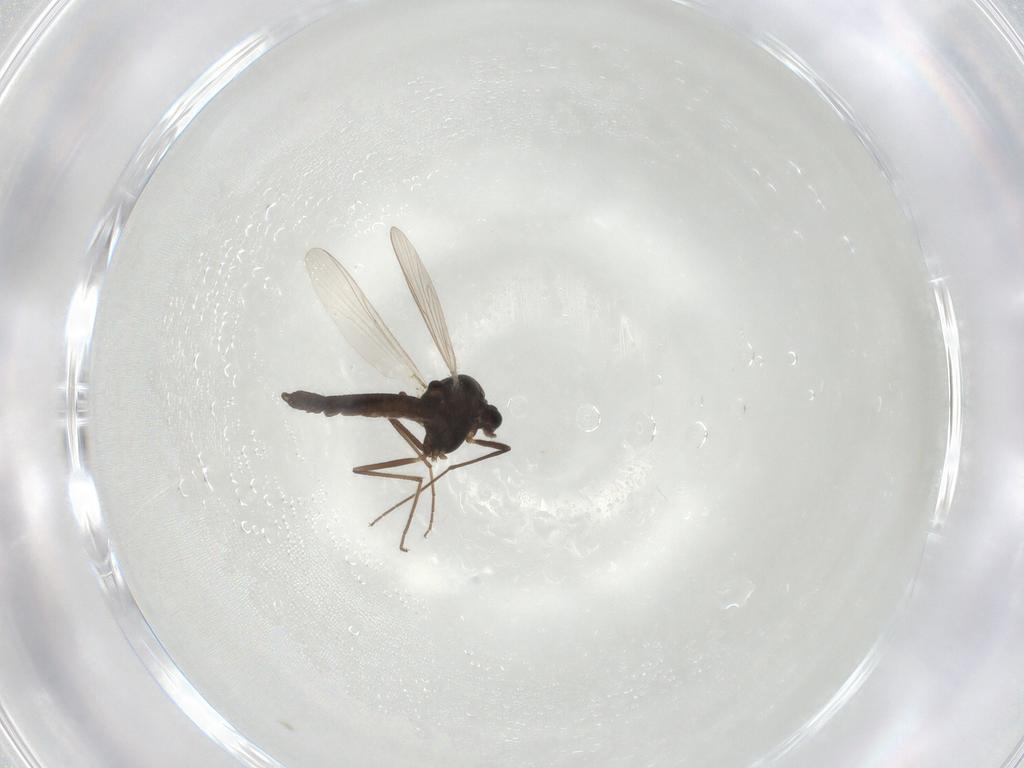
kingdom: Animalia
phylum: Arthropoda
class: Insecta
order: Diptera
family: Chironomidae
